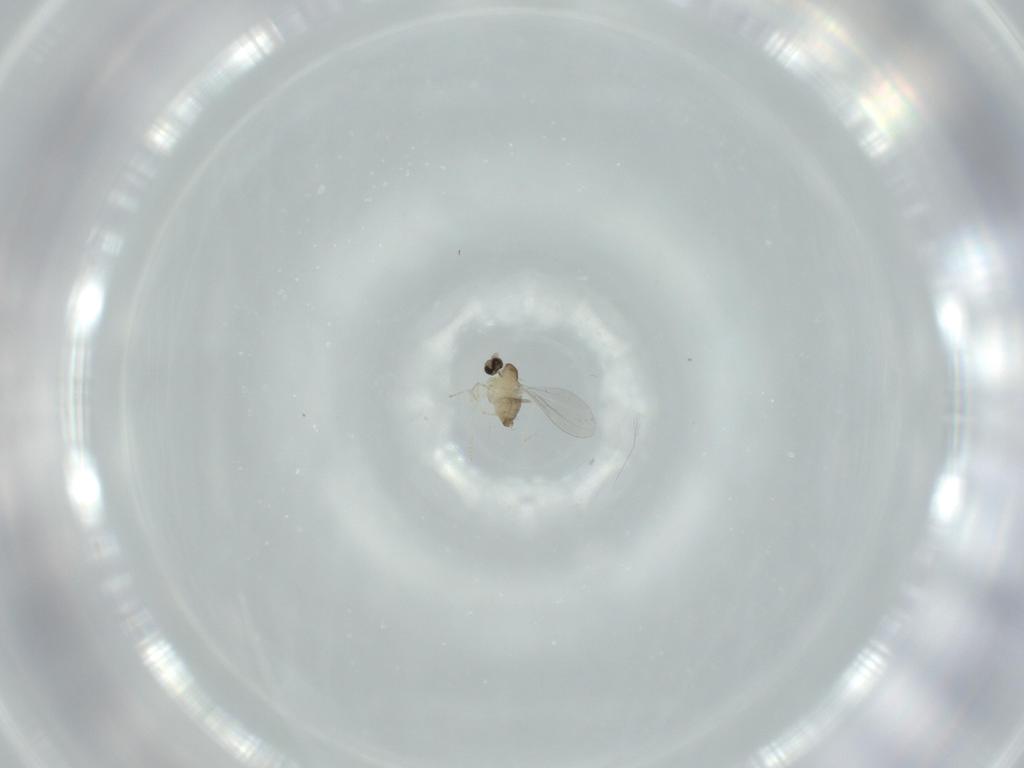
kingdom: Animalia
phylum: Arthropoda
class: Insecta
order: Diptera
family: Cecidomyiidae
